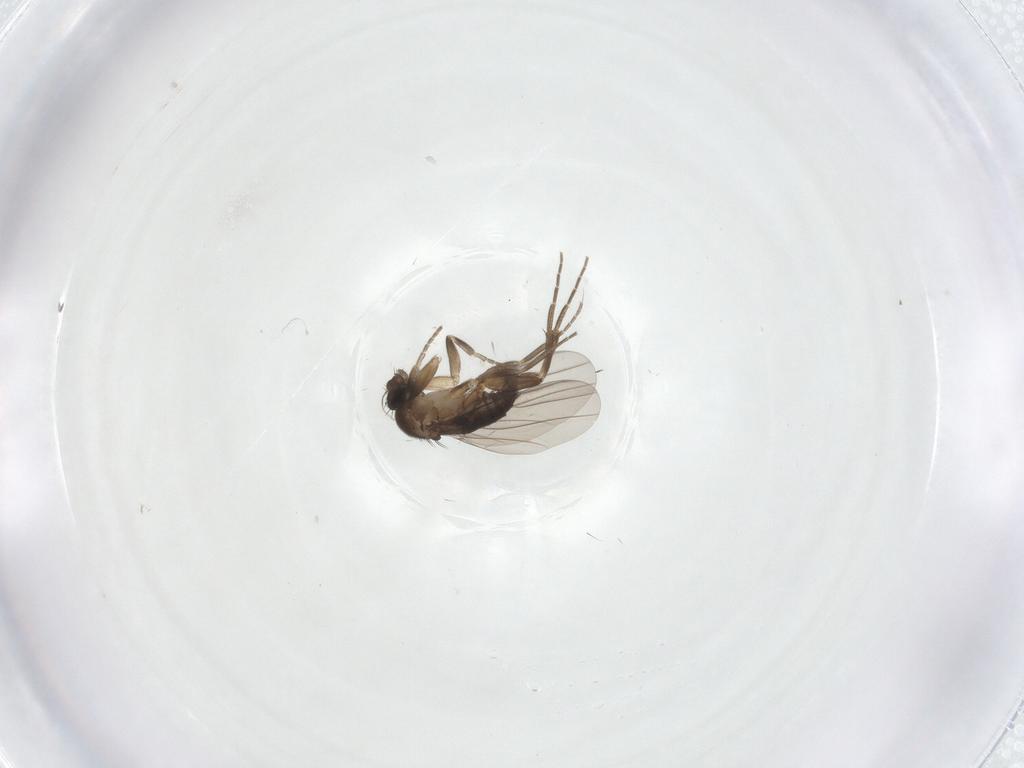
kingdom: Animalia
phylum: Arthropoda
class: Insecta
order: Diptera
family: Phoridae
